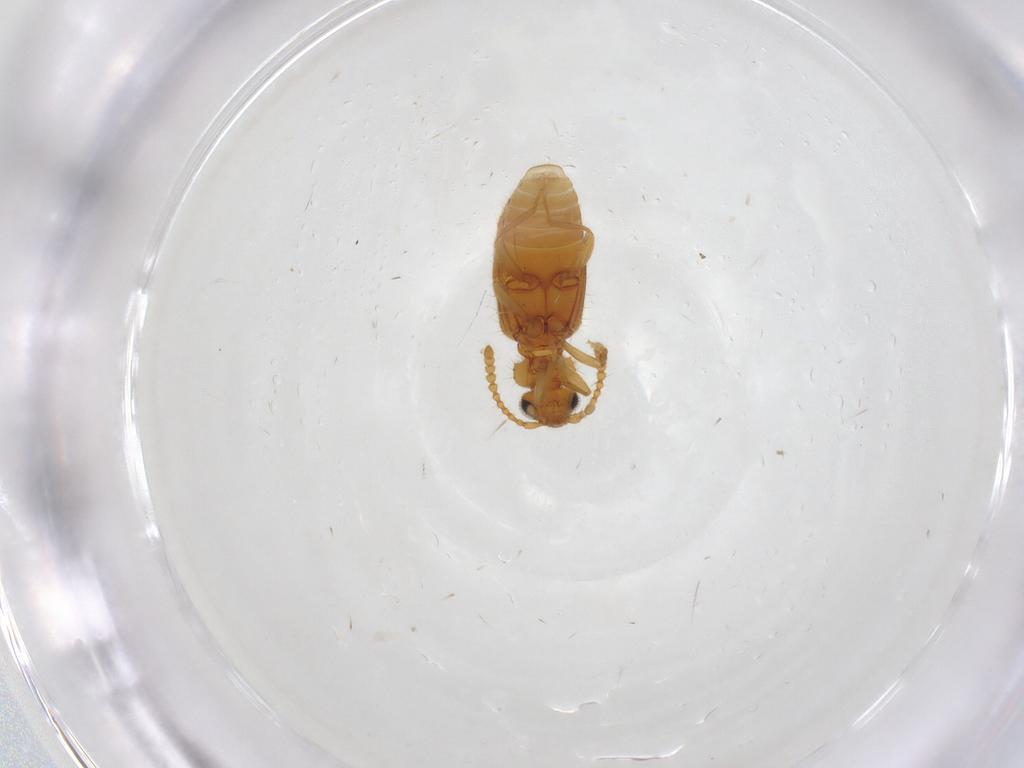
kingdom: Animalia
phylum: Arthropoda
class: Insecta
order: Coleoptera
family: Anthicidae
